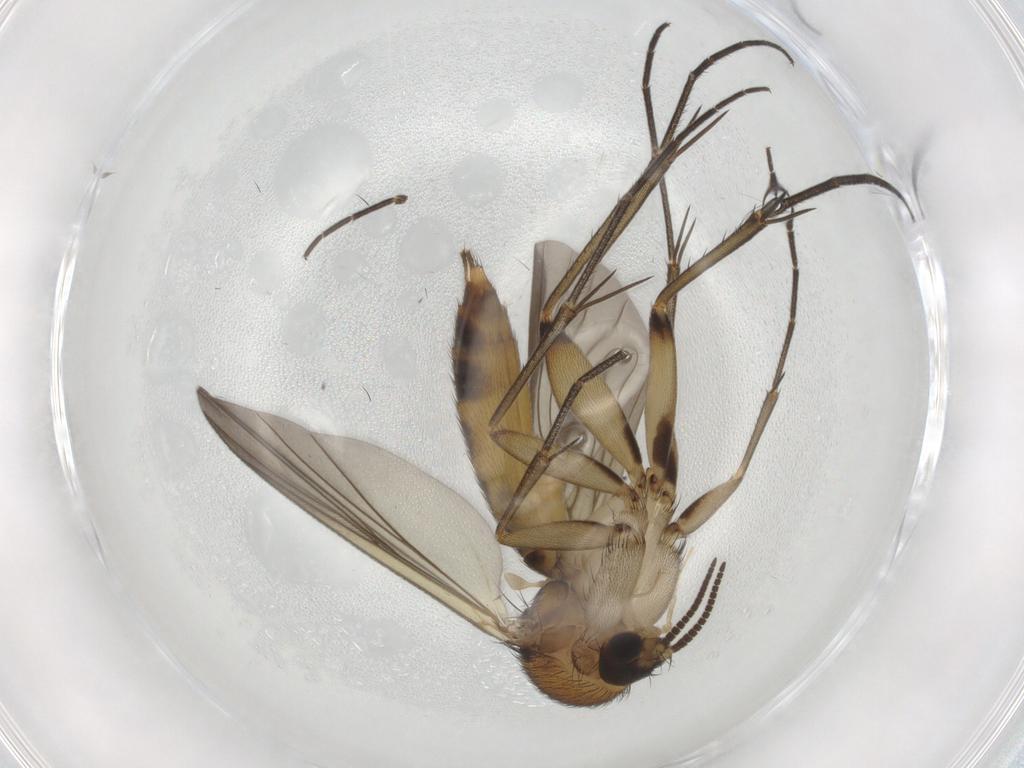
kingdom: Animalia
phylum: Arthropoda
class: Insecta
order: Diptera
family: Mycetophilidae
